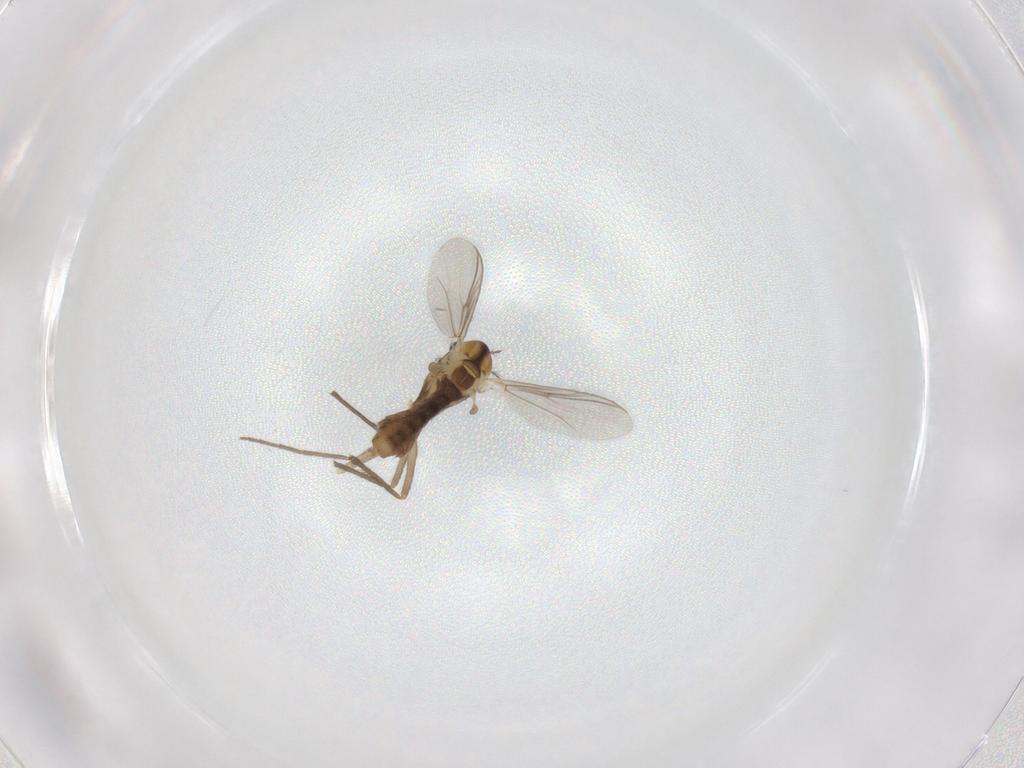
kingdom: Animalia
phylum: Arthropoda
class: Insecta
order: Diptera
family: Chironomidae
